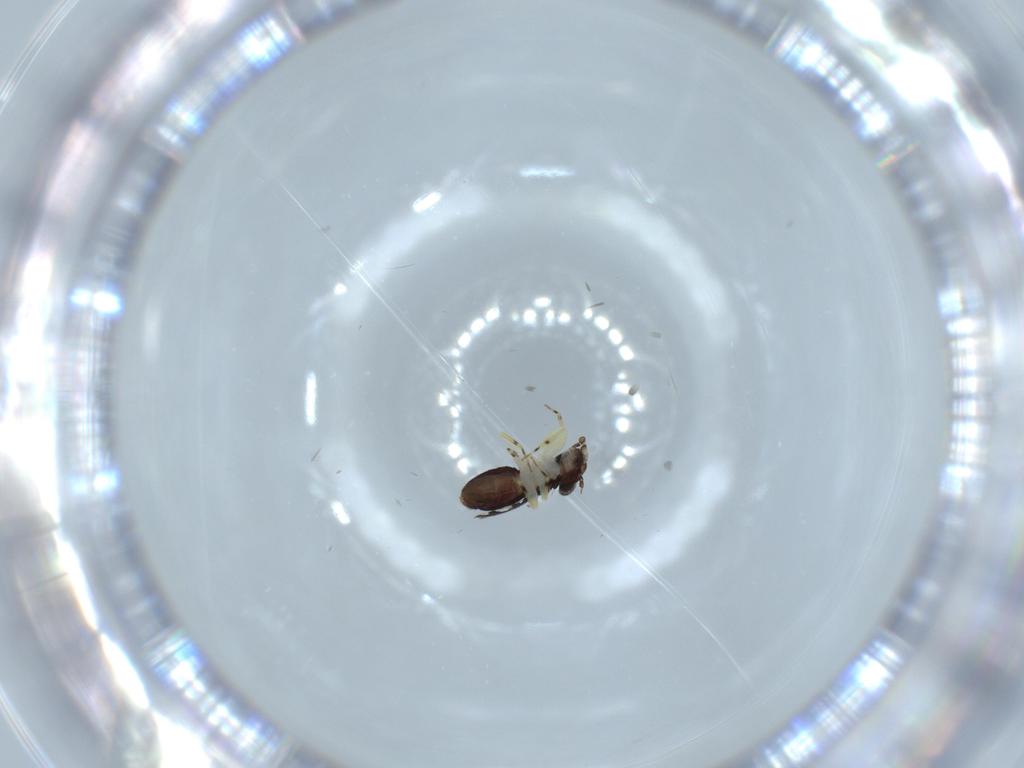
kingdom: Animalia
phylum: Arthropoda
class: Insecta
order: Psocodea
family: Psoquillidae
